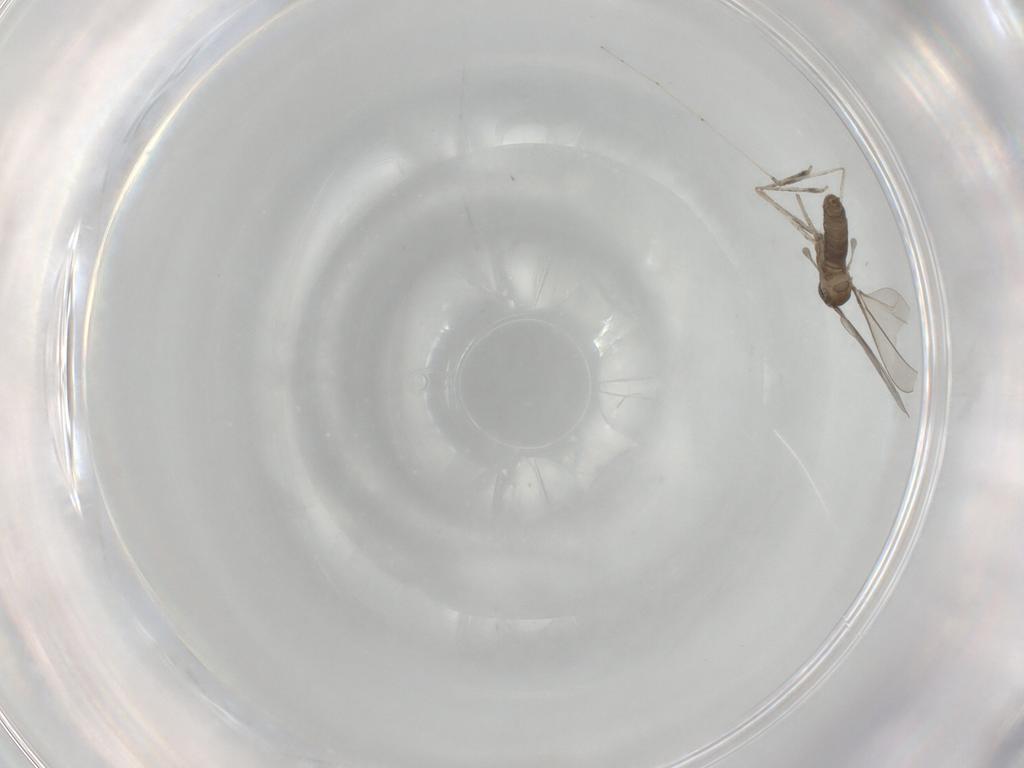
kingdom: Animalia
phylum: Arthropoda
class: Insecta
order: Diptera
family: Cecidomyiidae
